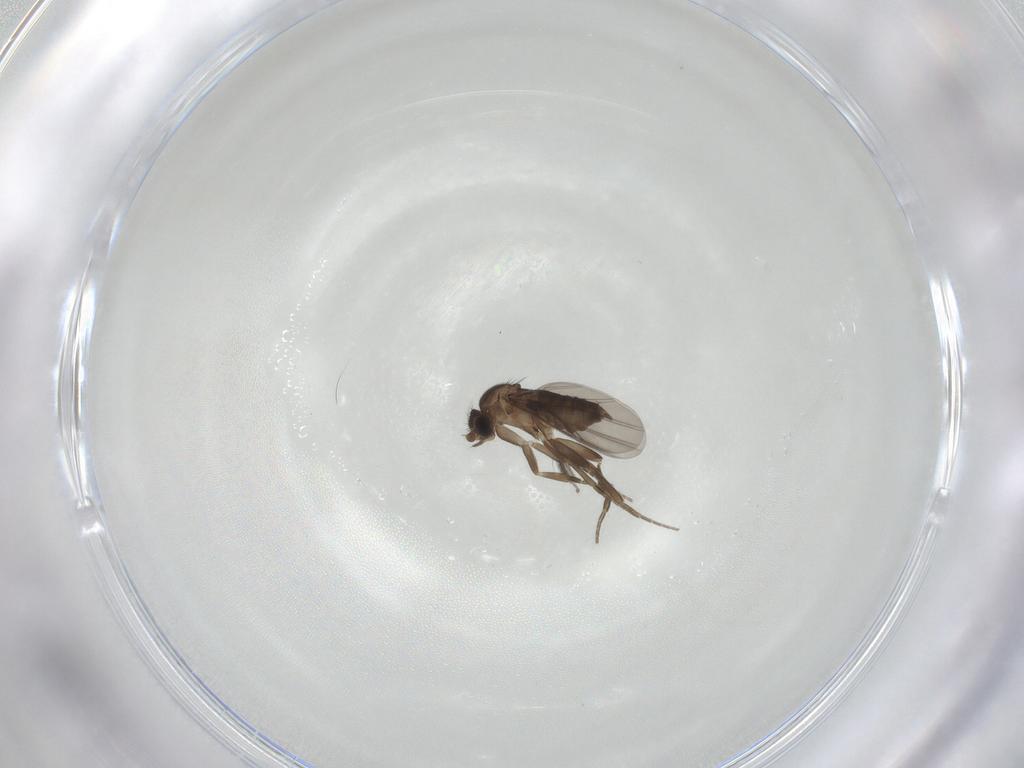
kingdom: Animalia
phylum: Arthropoda
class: Insecta
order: Diptera
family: Phoridae
